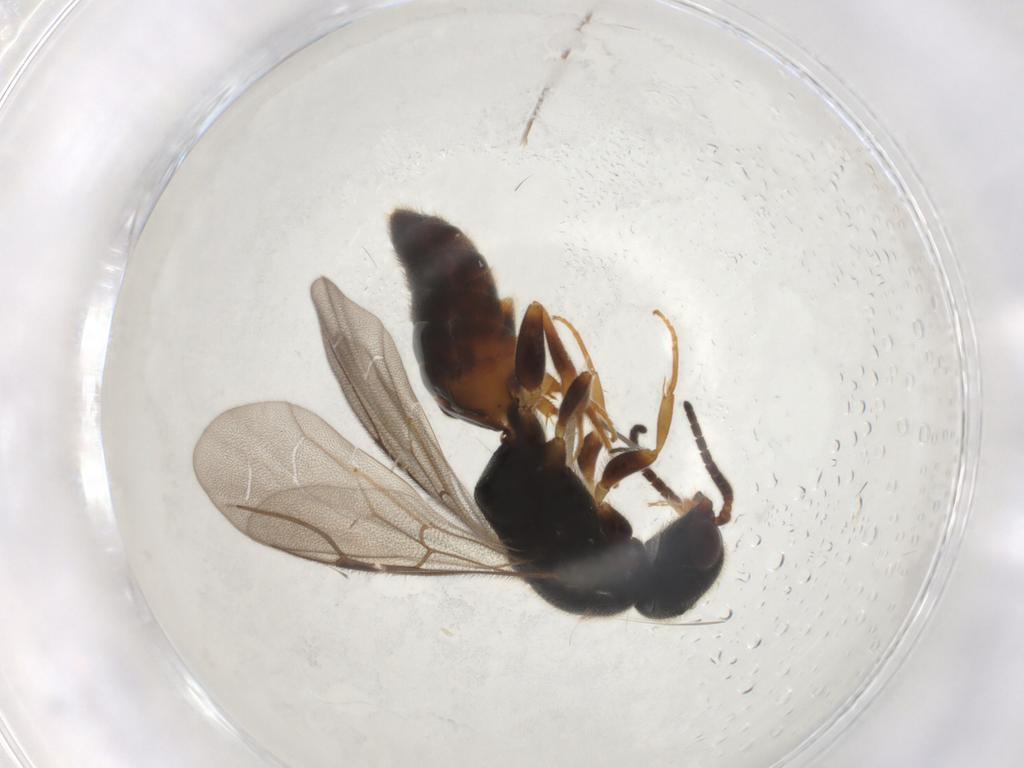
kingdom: Animalia
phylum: Arthropoda
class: Insecta
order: Hymenoptera
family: Bethylidae
